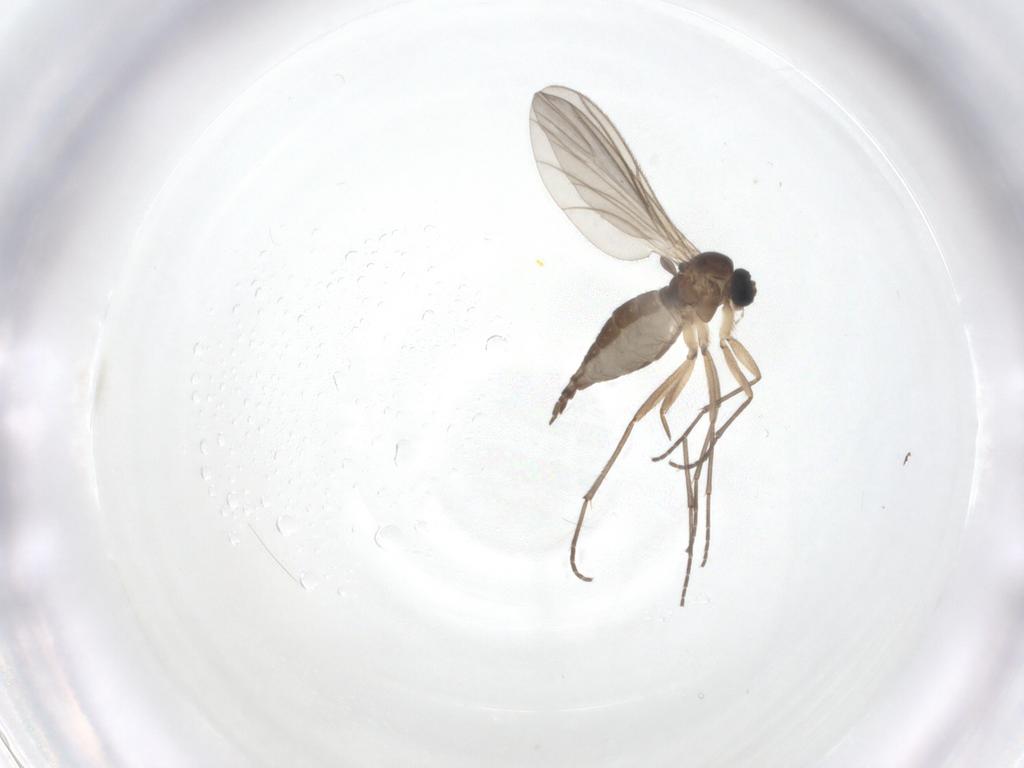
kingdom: Animalia
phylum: Arthropoda
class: Insecta
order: Diptera
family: Sciaridae
